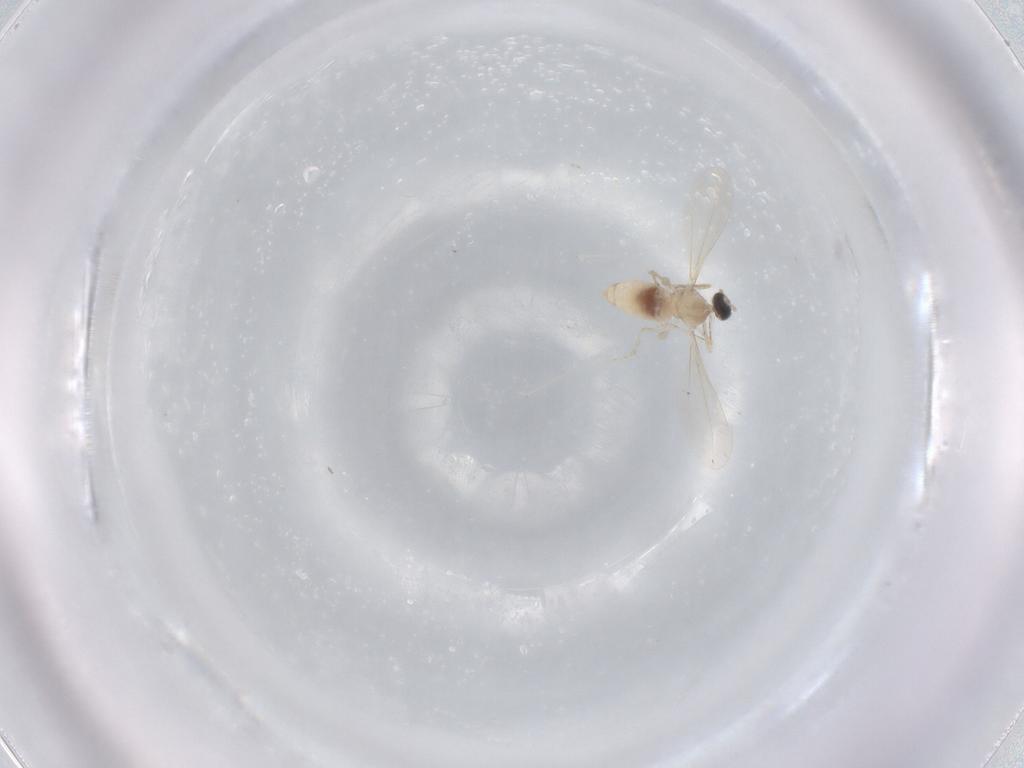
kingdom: Animalia
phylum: Arthropoda
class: Insecta
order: Diptera
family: Cecidomyiidae
